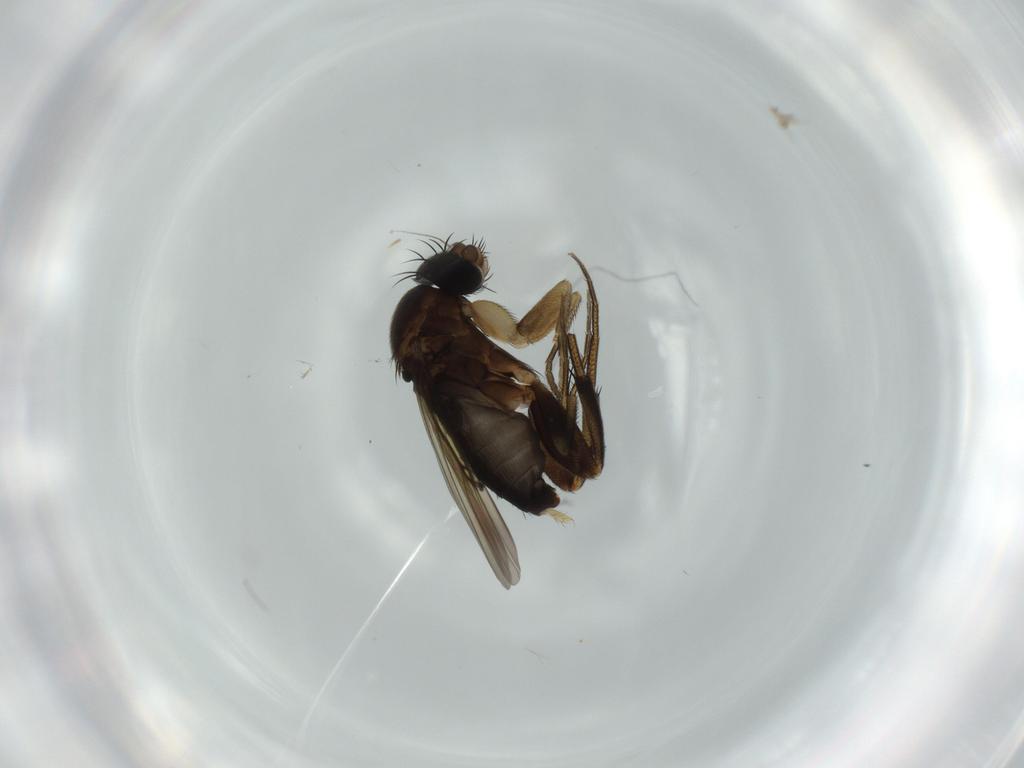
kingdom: Animalia
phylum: Arthropoda
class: Insecta
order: Diptera
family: Phoridae
